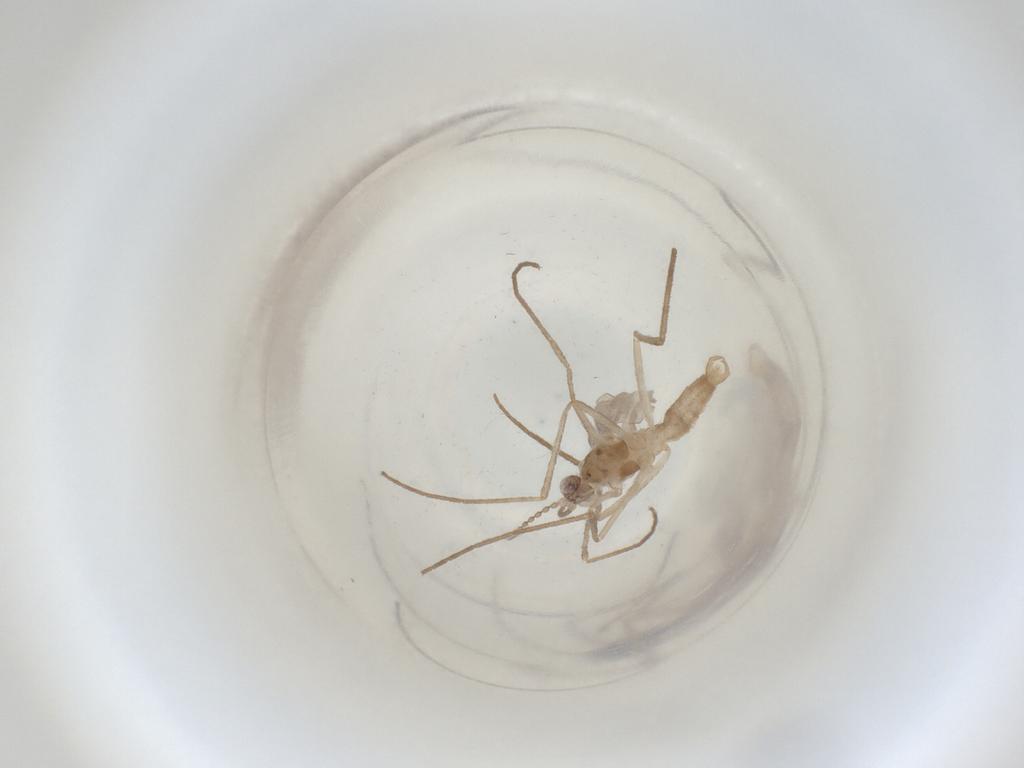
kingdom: Animalia
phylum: Arthropoda
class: Insecta
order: Diptera
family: Cecidomyiidae
